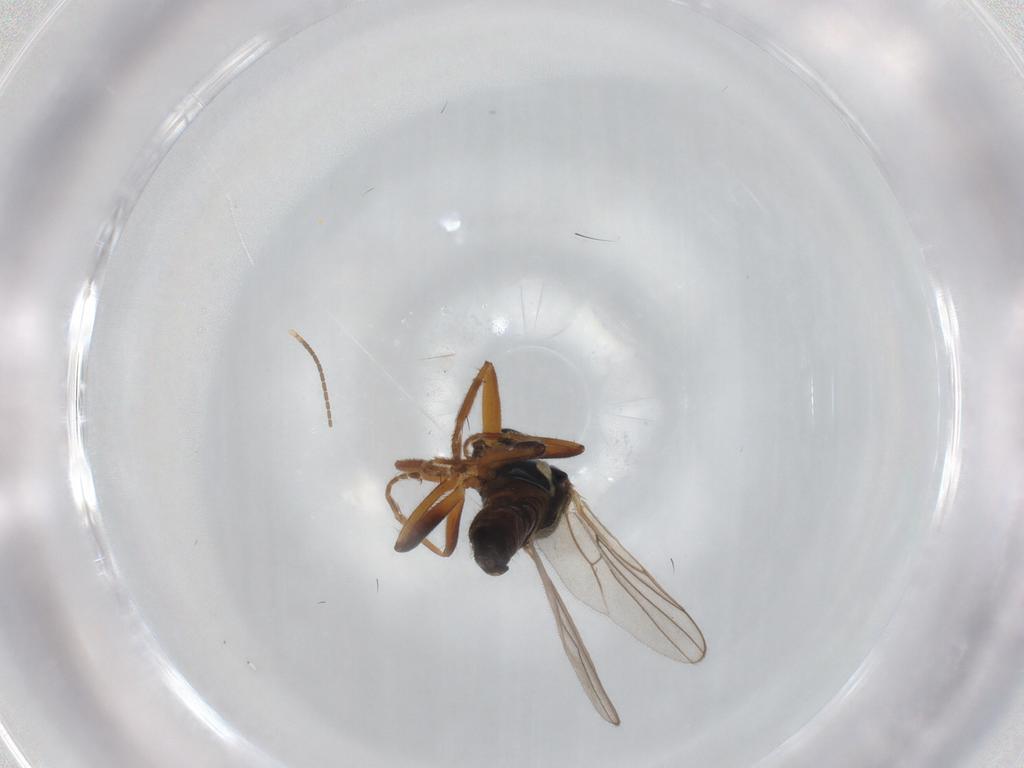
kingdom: Animalia
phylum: Arthropoda
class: Insecta
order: Diptera
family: Hybotidae
